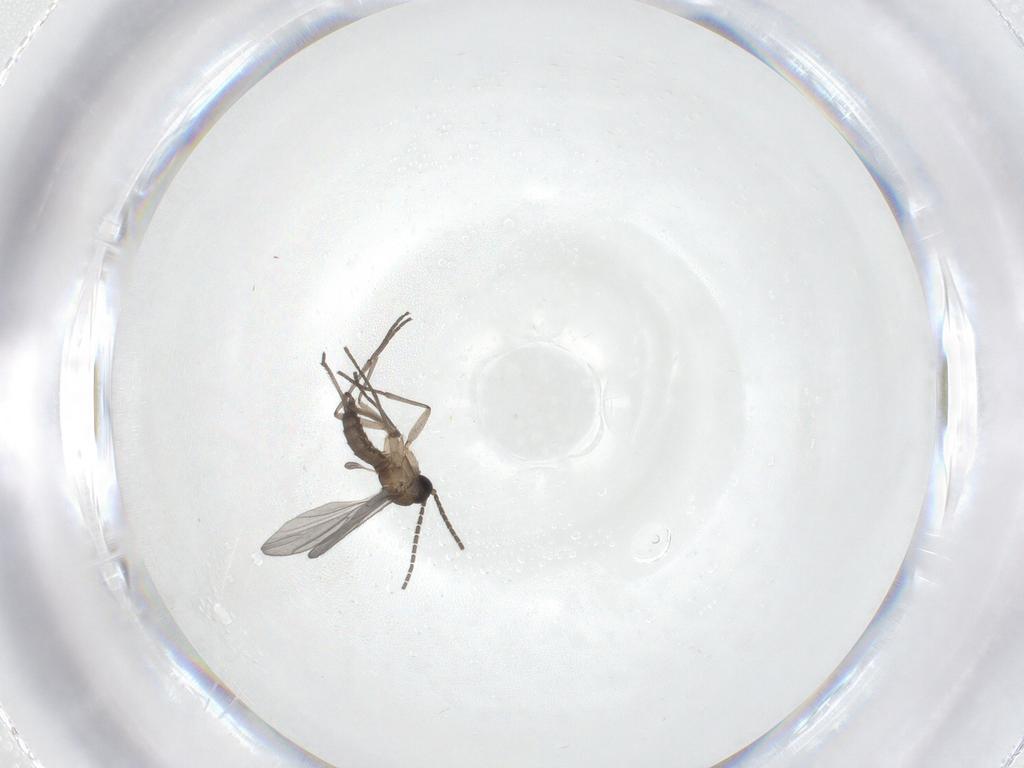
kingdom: Animalia
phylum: Arthropoda
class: Insecta
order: Diptera
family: Sciaridae
